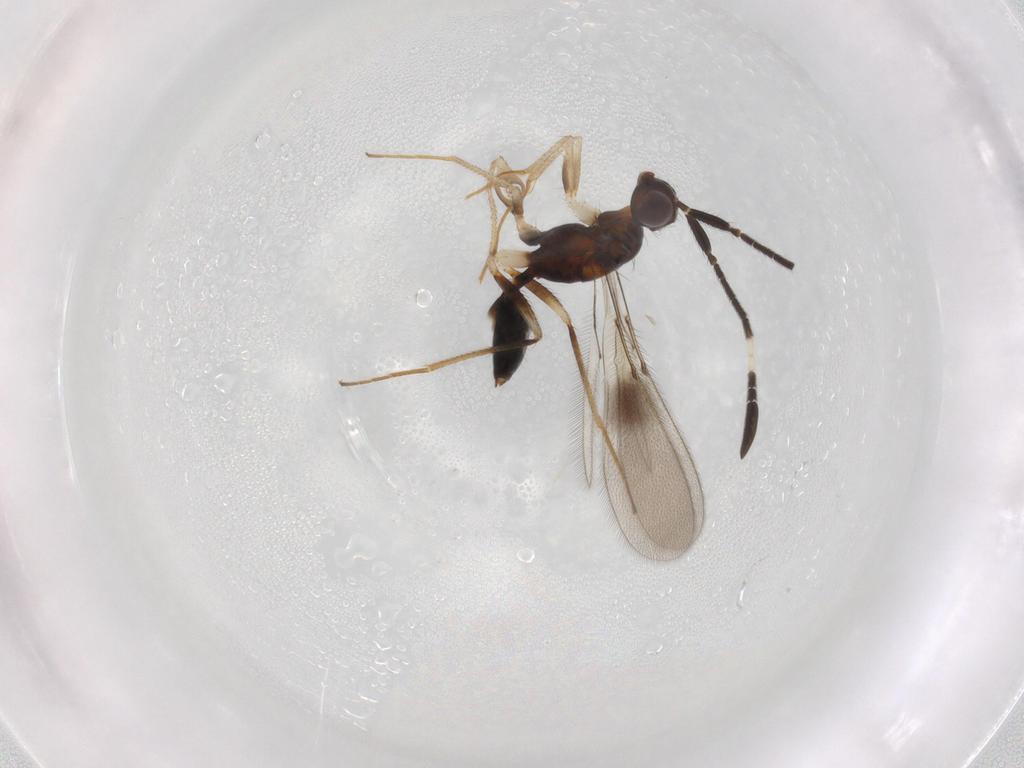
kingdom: Animalia
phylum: Arthropoda
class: Insecta
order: Hymenoptera
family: Mymaridae
